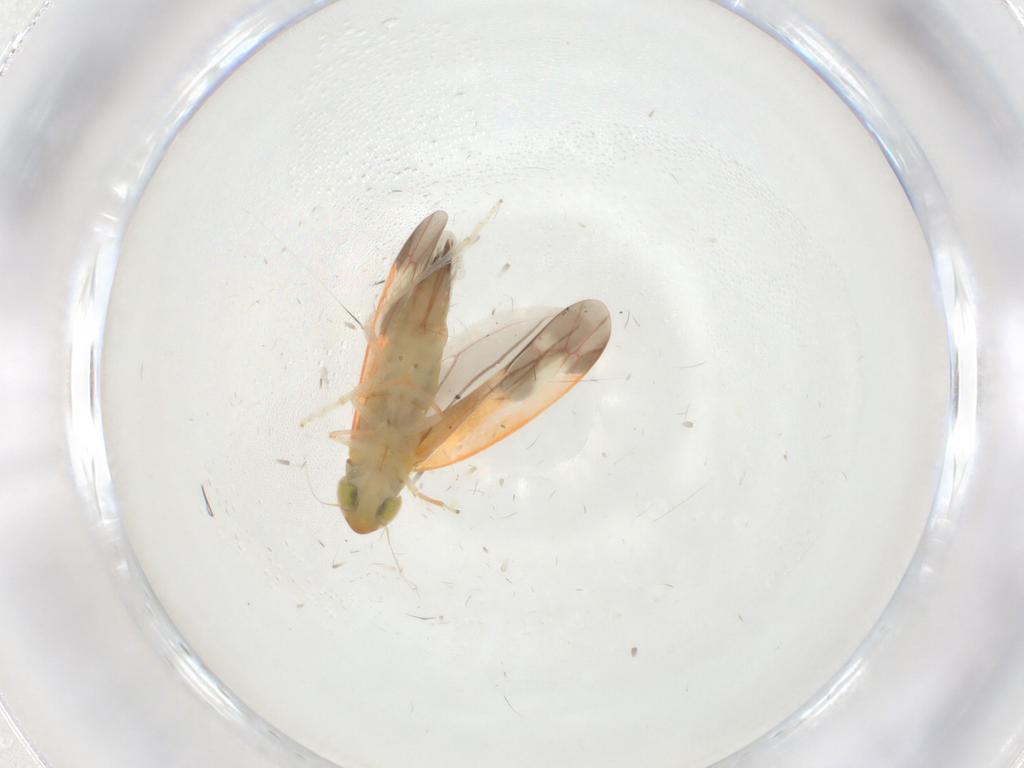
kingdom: Animalia
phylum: Arthropoda
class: Insecta
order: Hemiptera
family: Cicadellidae
